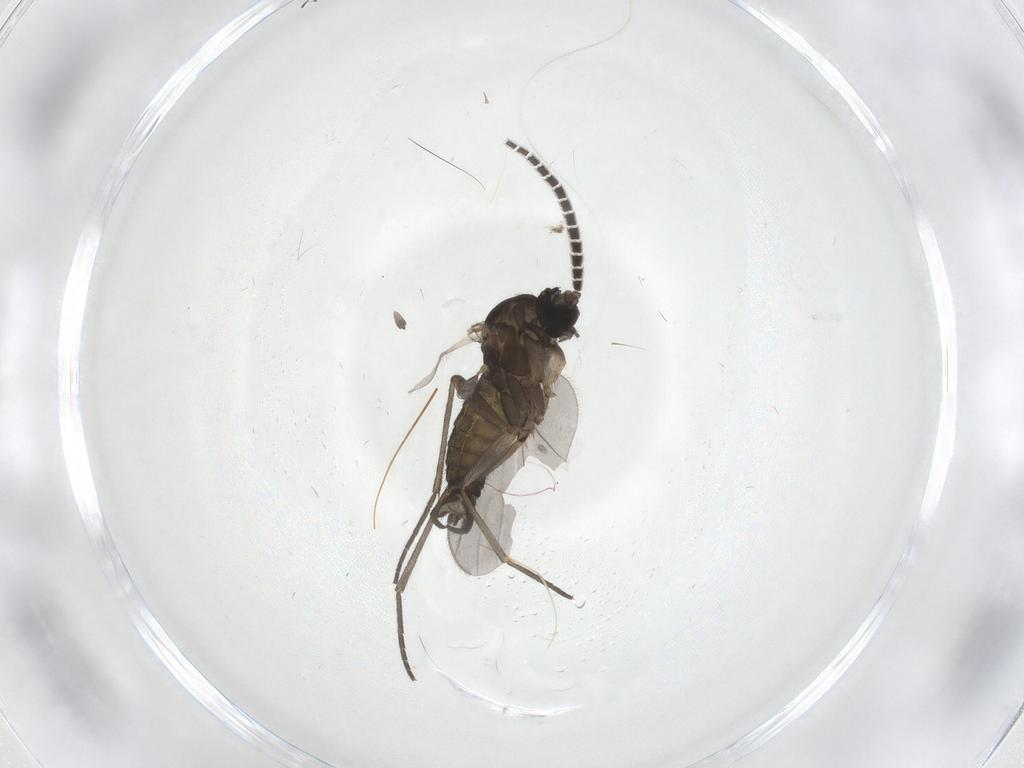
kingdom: Animalia
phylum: Arthropoda
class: Insecta
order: Diptera
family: Sciaridae
